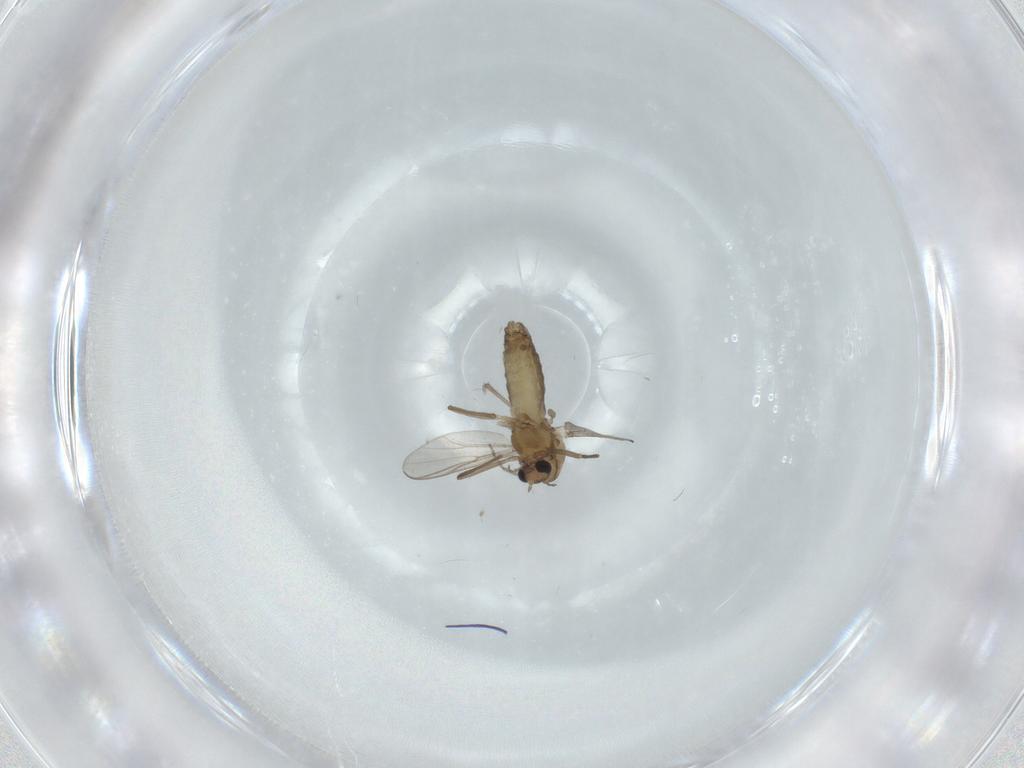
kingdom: Animalia
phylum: Arthropoda
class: Insecta
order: Diptera
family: Chironomidae
